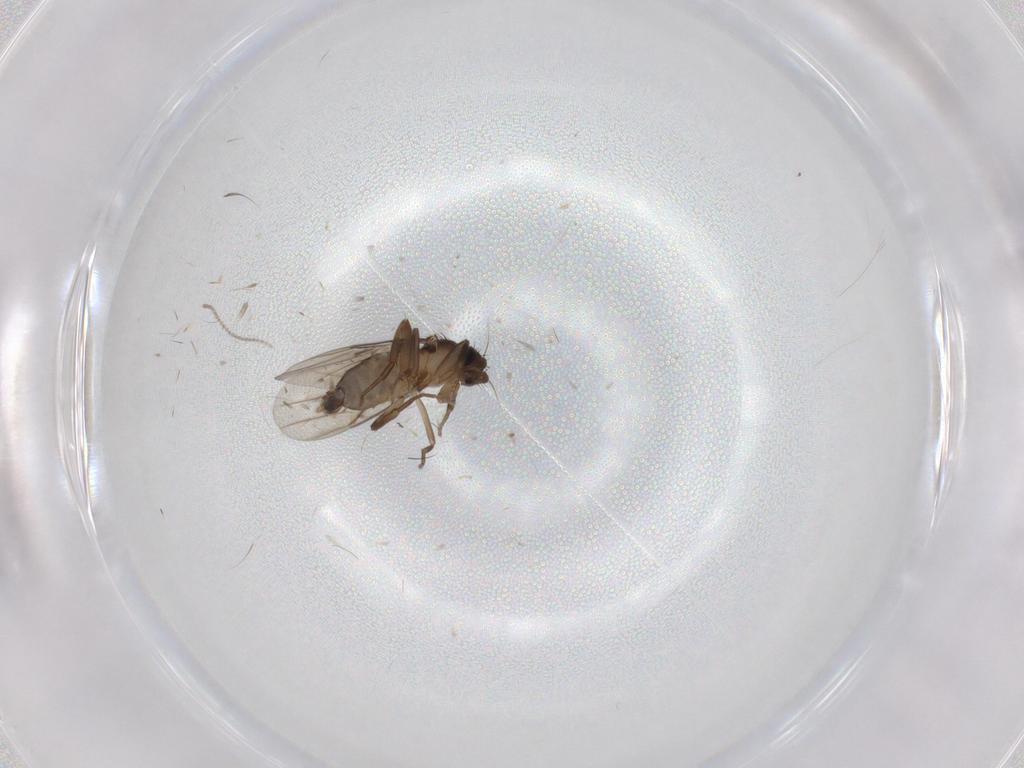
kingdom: Animalia
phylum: Arthropoda
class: Insecta
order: Diptera
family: Phoridae
